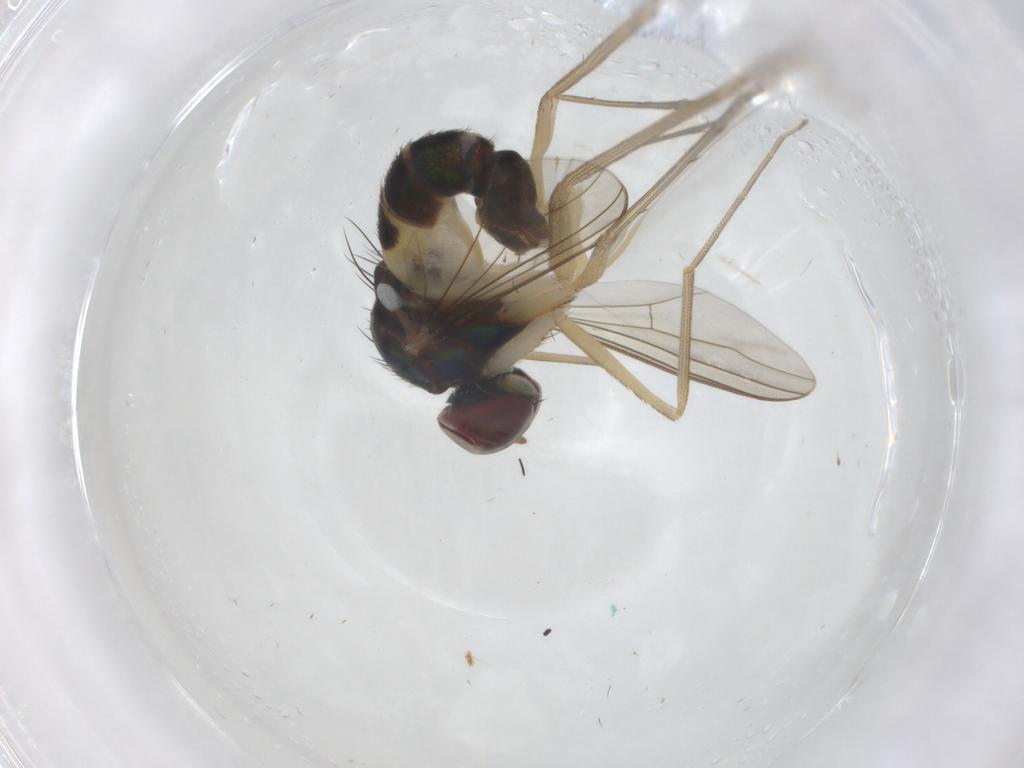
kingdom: Animalia
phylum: Arthropoda
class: Insecta
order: Diptera
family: Dolichopodidae
